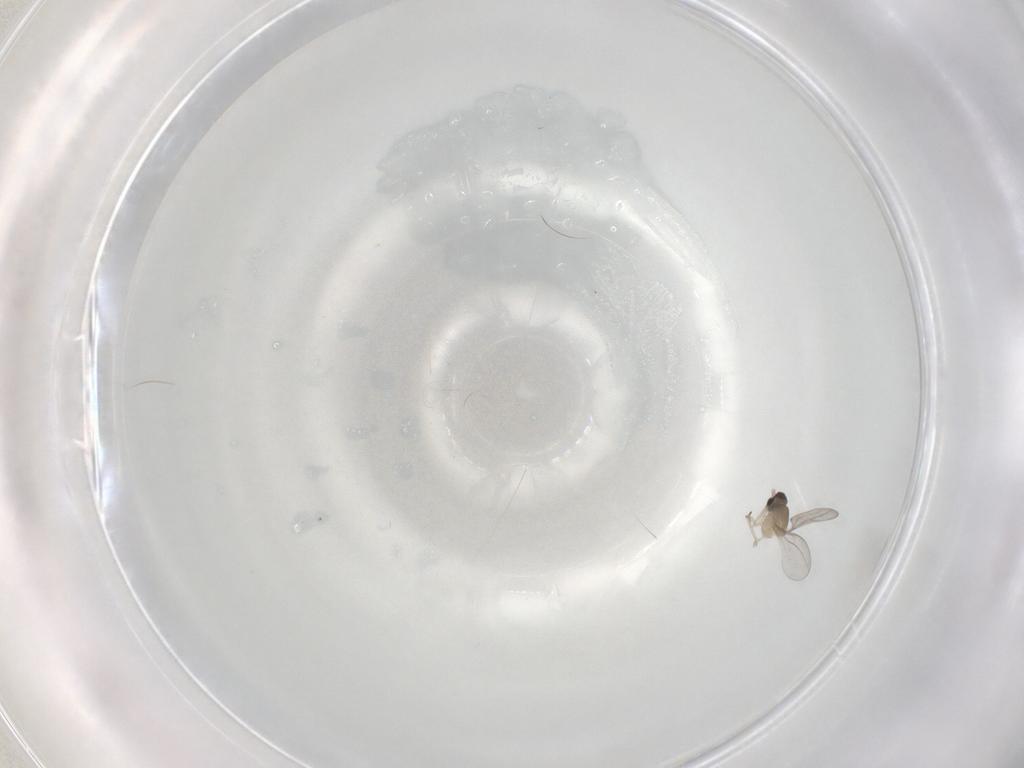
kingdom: Animalia
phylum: Arthropoda
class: Insecta
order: Diptera
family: Cecidomyiidae
